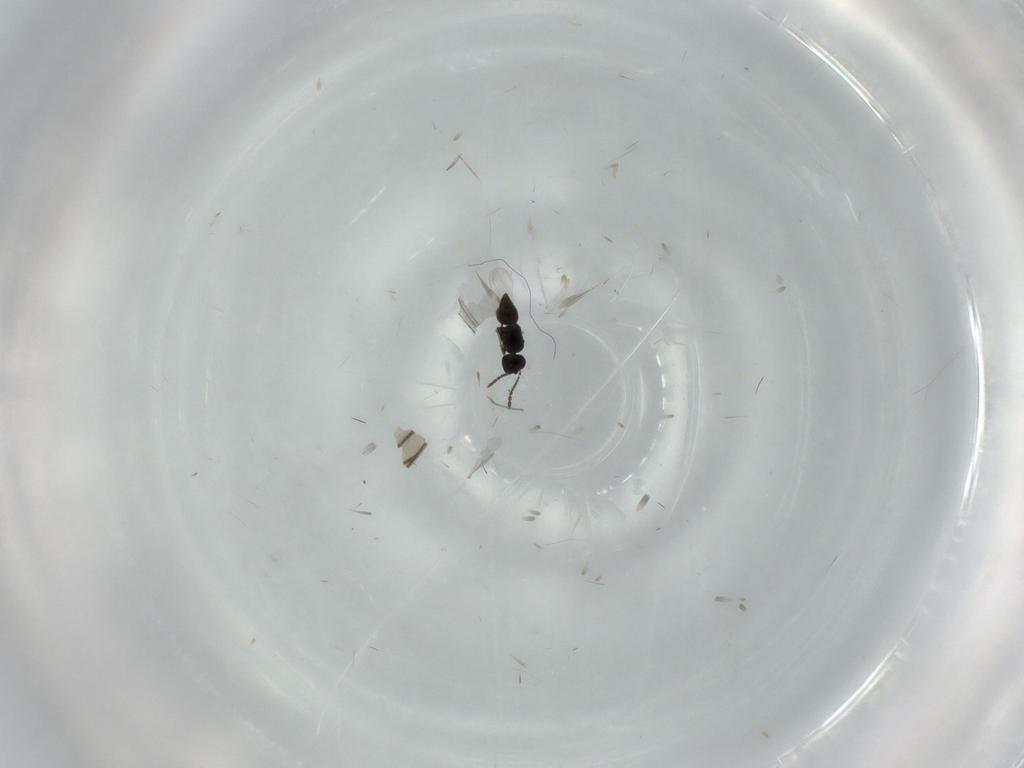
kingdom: Animalia
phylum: Arthropoda
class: Insecta
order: Hymenoptera
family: Ceraphronidae
